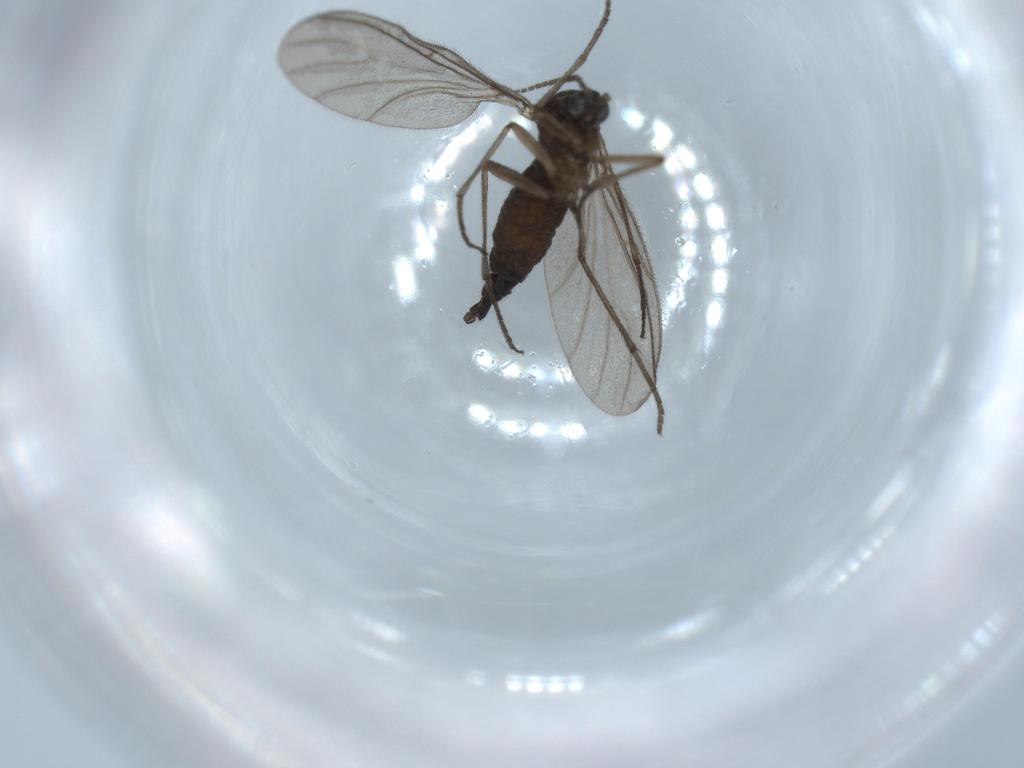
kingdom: Animalia
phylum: Arthropoda
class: Insecta
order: Diptera
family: Sciaridae
